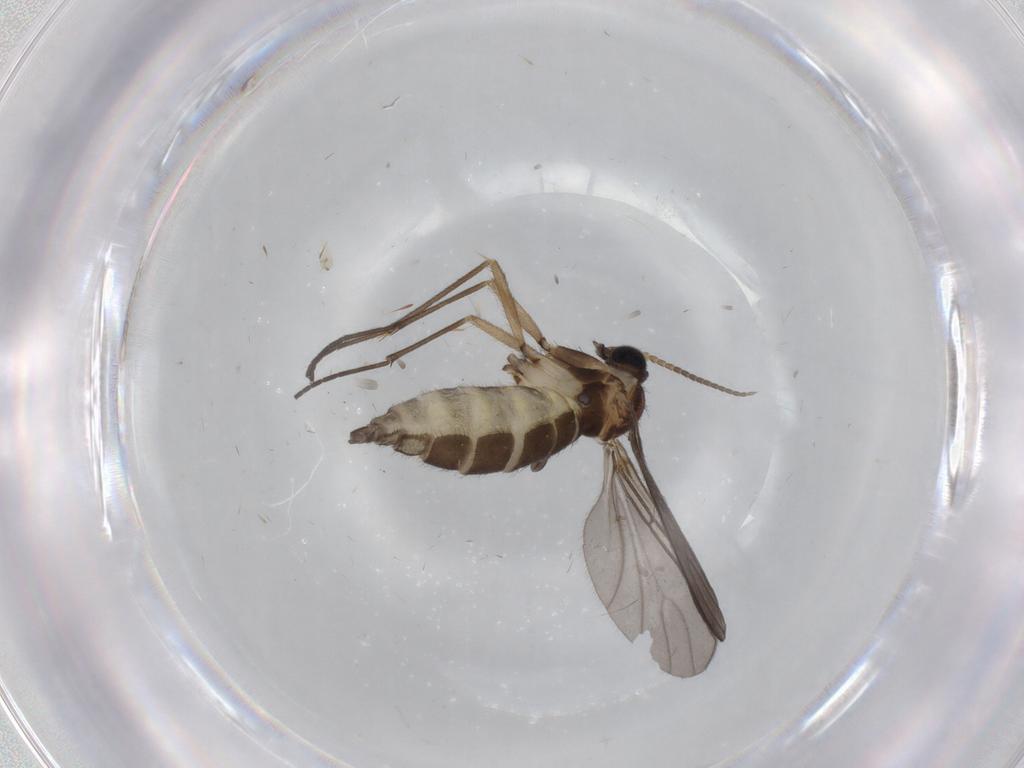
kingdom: Animalia
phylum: Arthropoda
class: Insecta
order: Diptera
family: Sciaridae
